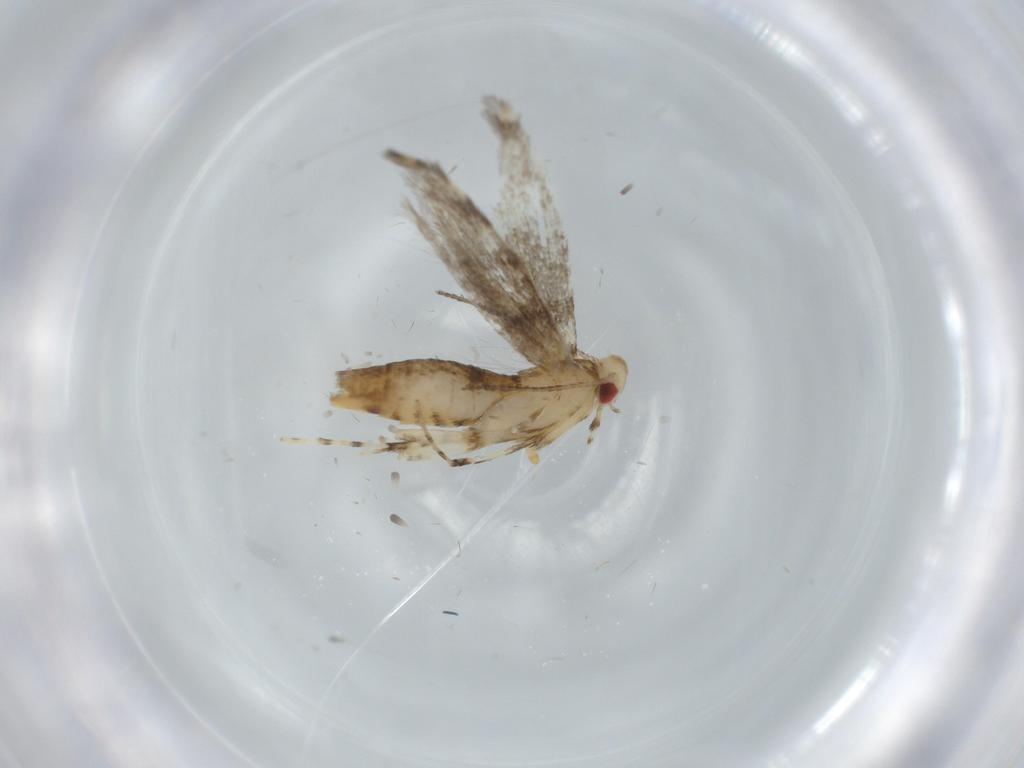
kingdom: Animalia
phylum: Arthropoda
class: Insecta
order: Lepidoptera
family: Gracillariidae
